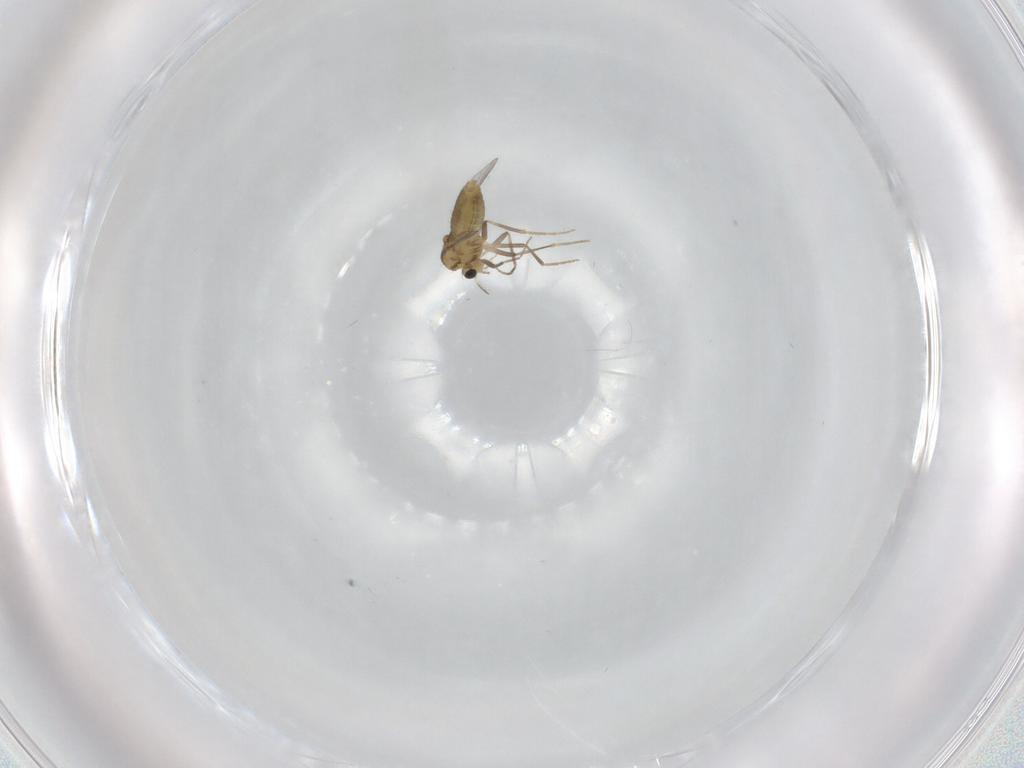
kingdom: Animalia
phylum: Arthropoda
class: Insecta
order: Diptera
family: Chironomidae
